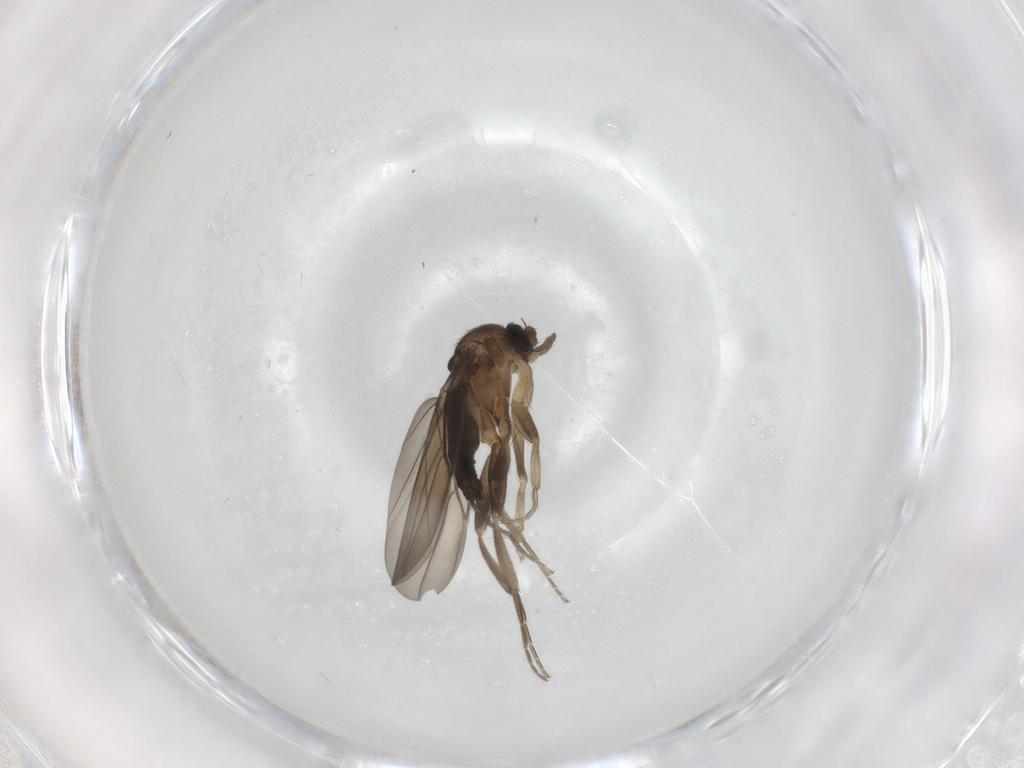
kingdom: Animalia
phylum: Arthropoda
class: Insecta
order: Diptera
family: Phoridae
